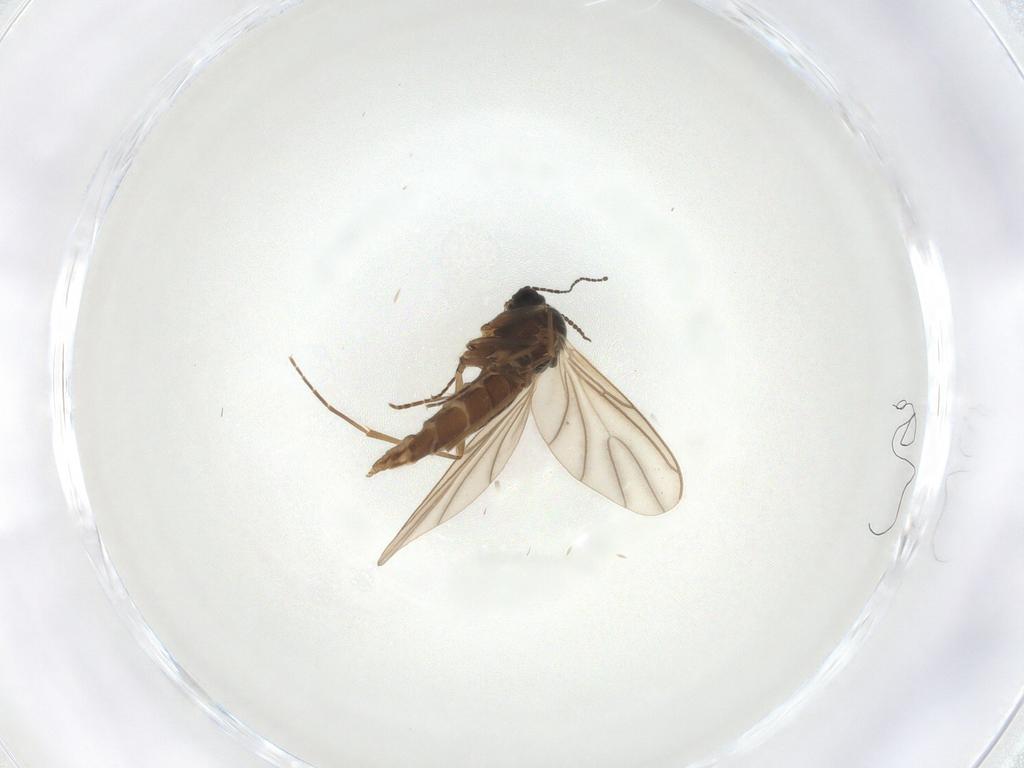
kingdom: Animalia
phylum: Arthropoda
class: Insecta
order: Diptera
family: Sciaridae
